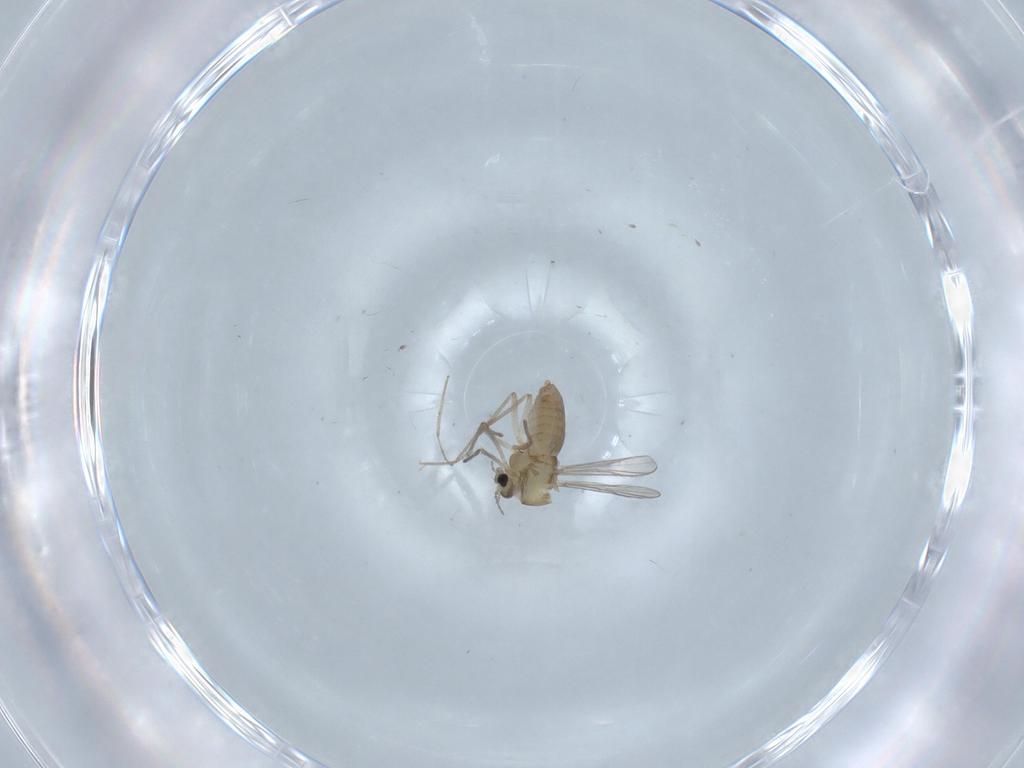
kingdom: Animalia
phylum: Arthropoda
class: Insecta
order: Diptera
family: Chironomidae
